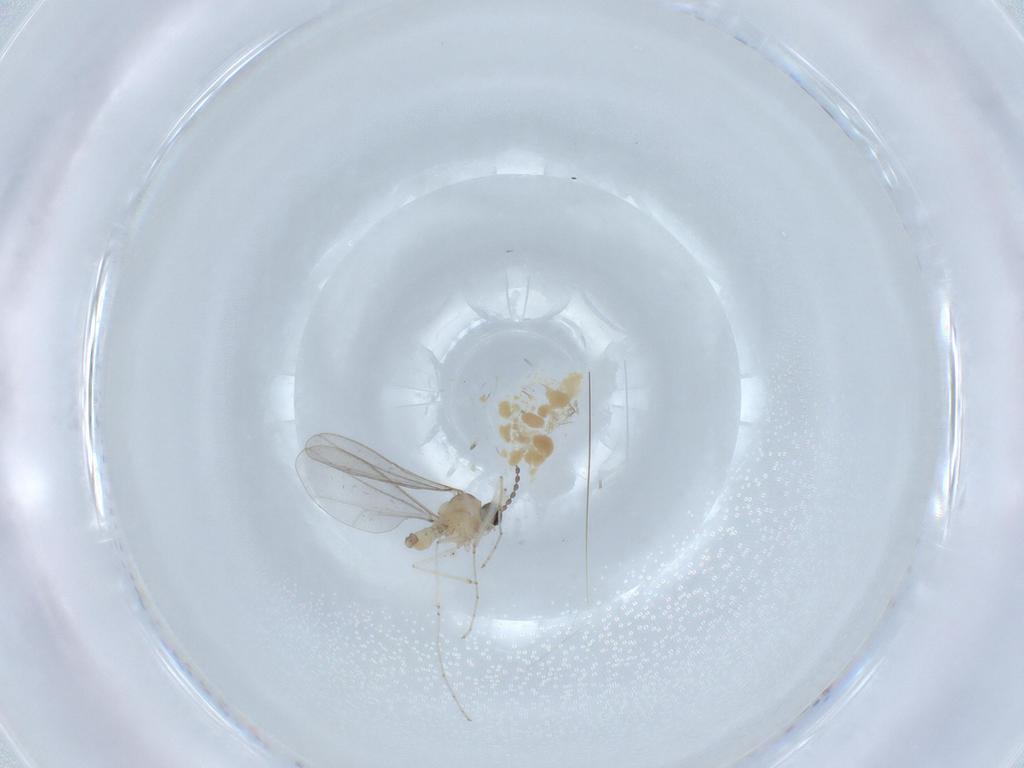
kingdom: Animalia
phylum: Arthropoda
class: Insecta
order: Diptera
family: Cecidomyiidae
